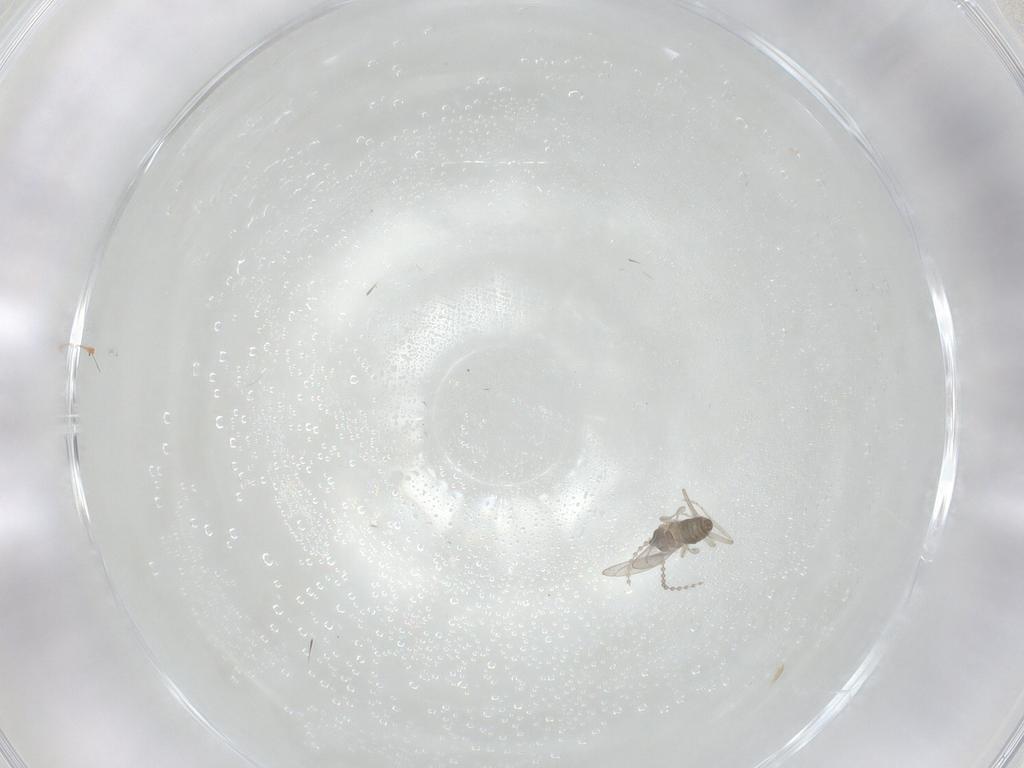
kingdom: Animalia
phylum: Arthropoda
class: Insecta
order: Diptera
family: Cecidomyiidae
